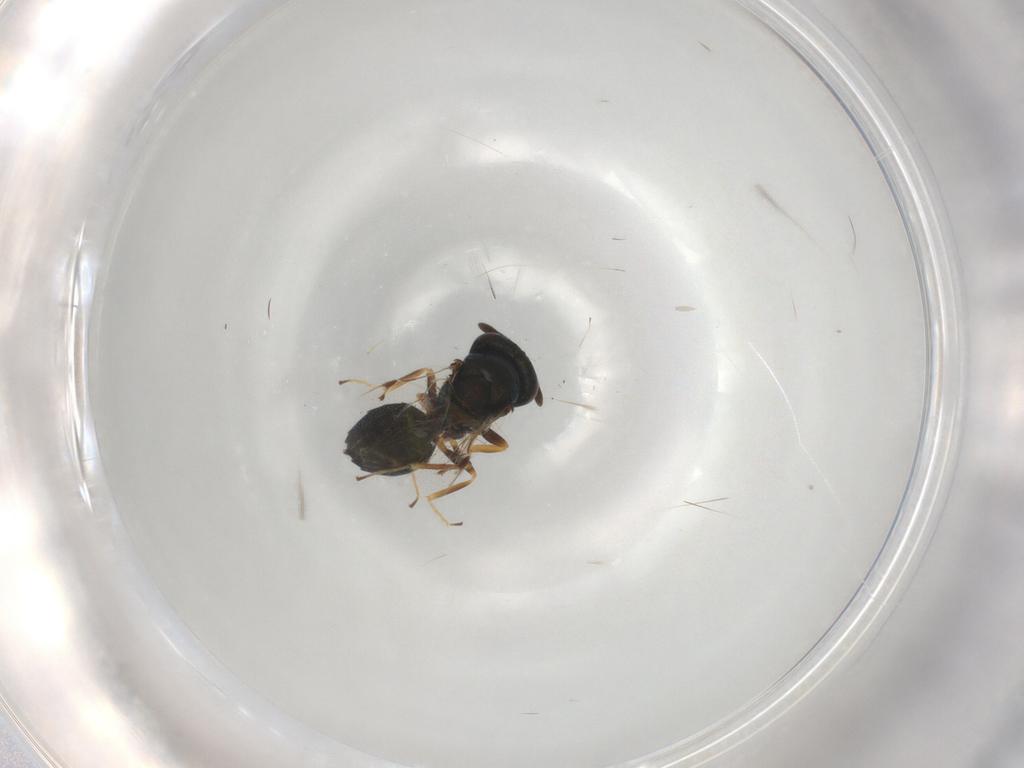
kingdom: Animalia
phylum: Arthropoda
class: Insecta
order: Hymenoptera
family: Pteromalidae
